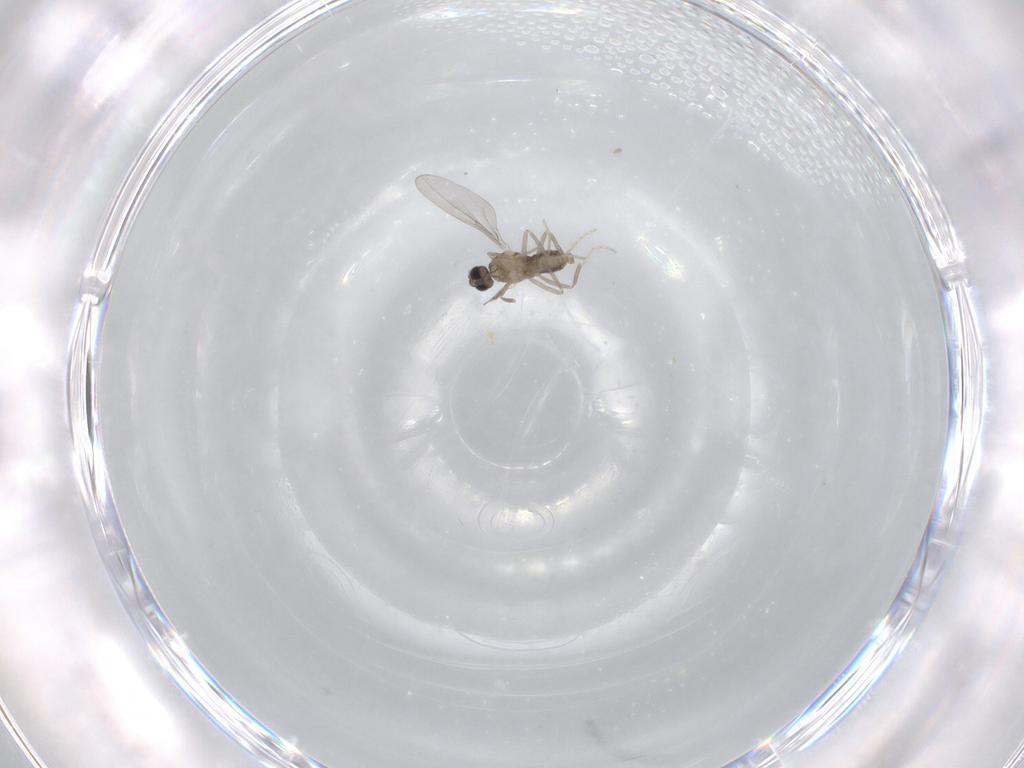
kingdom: Animalia
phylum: Arthropoda
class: Insecta
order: Diptera
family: Cecidomyiidae
